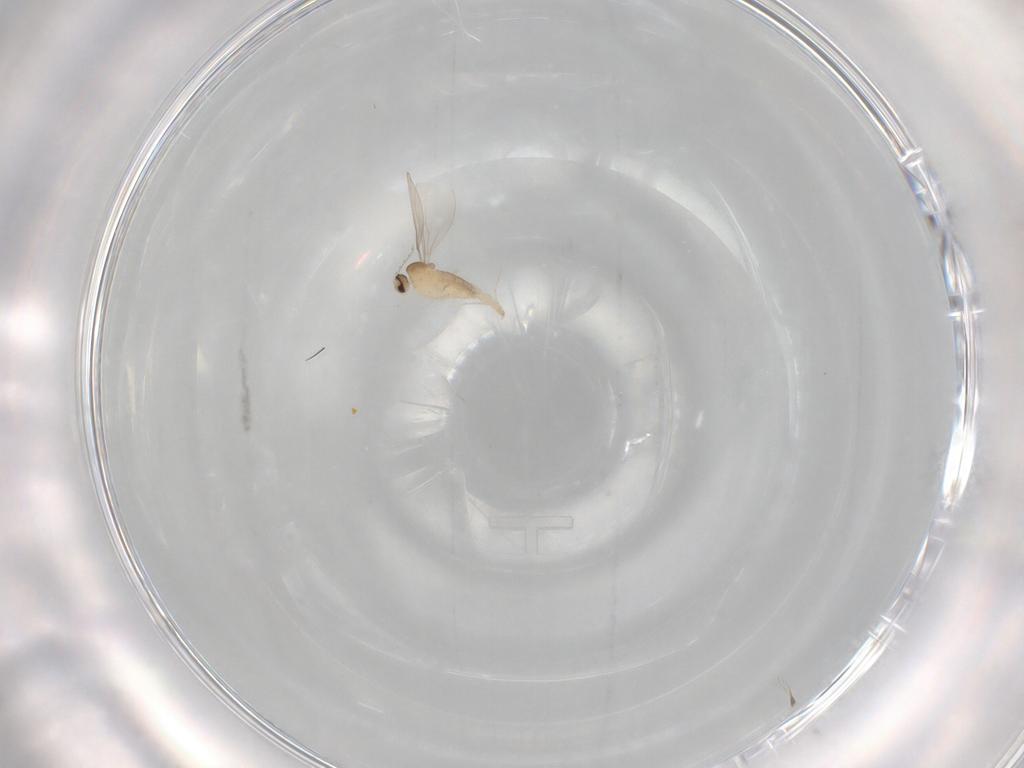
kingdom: Animalia
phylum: Arthropoda
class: Insecta
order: Diptera
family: Cecidomyiidae
